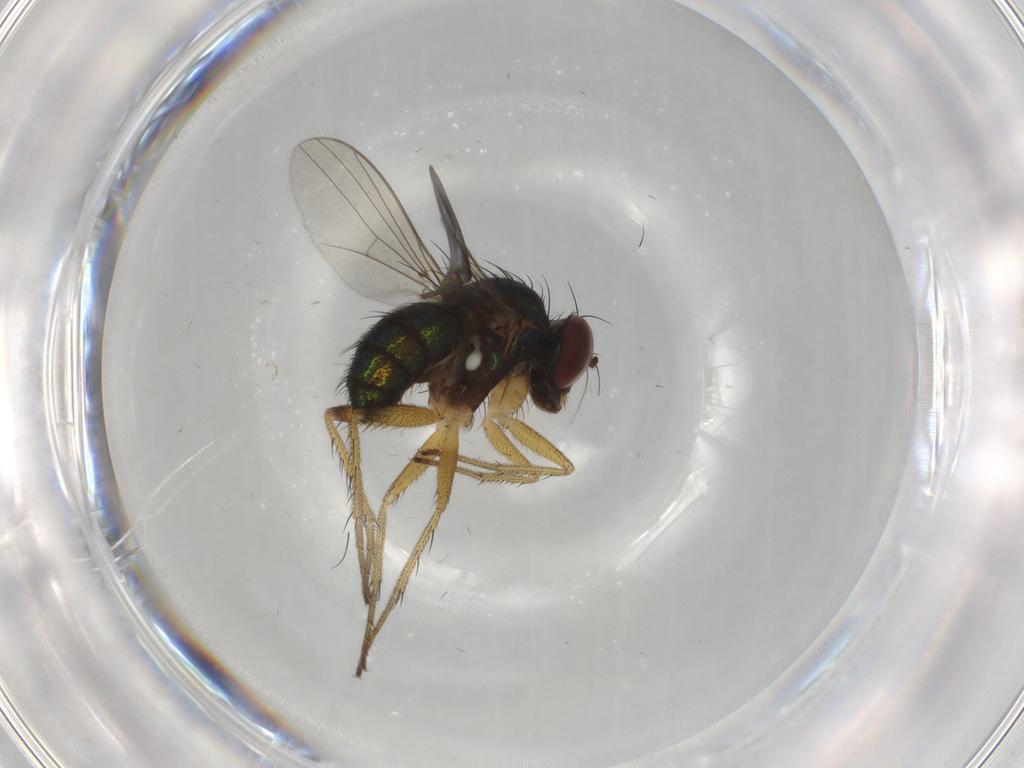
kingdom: Animalia
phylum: Arthropoda
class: Insecta
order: Diptera
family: Dolichopodidae
